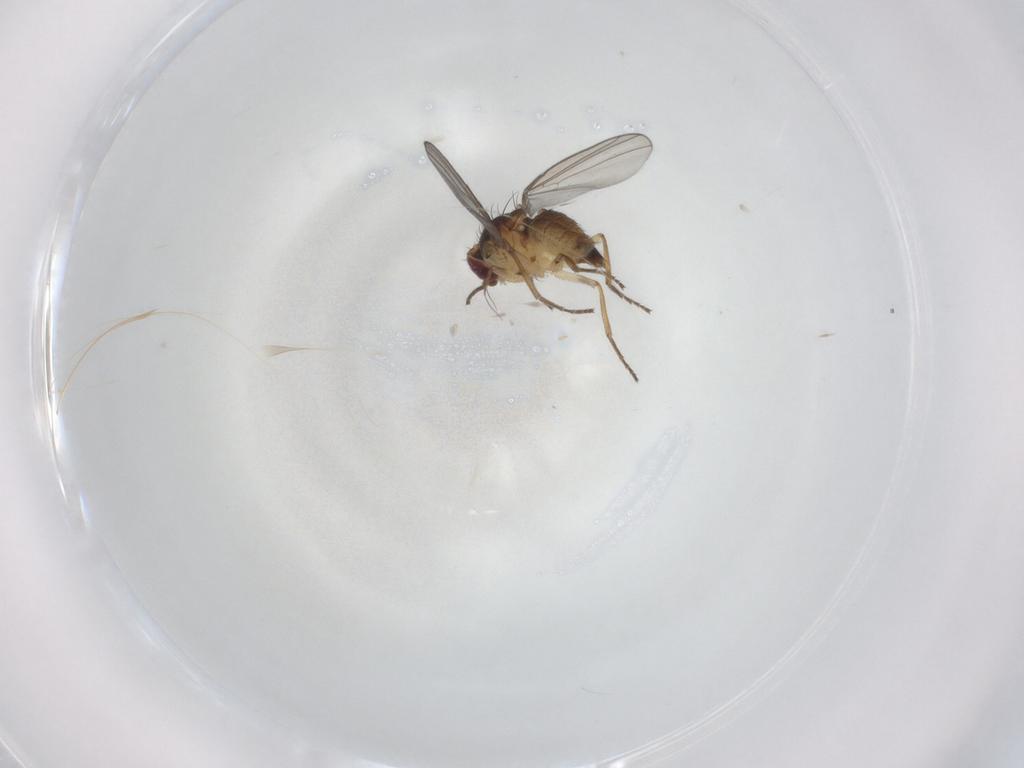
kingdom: Animalia
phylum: Arthropoda
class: Insecta
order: Diptera
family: Agromyzidae
